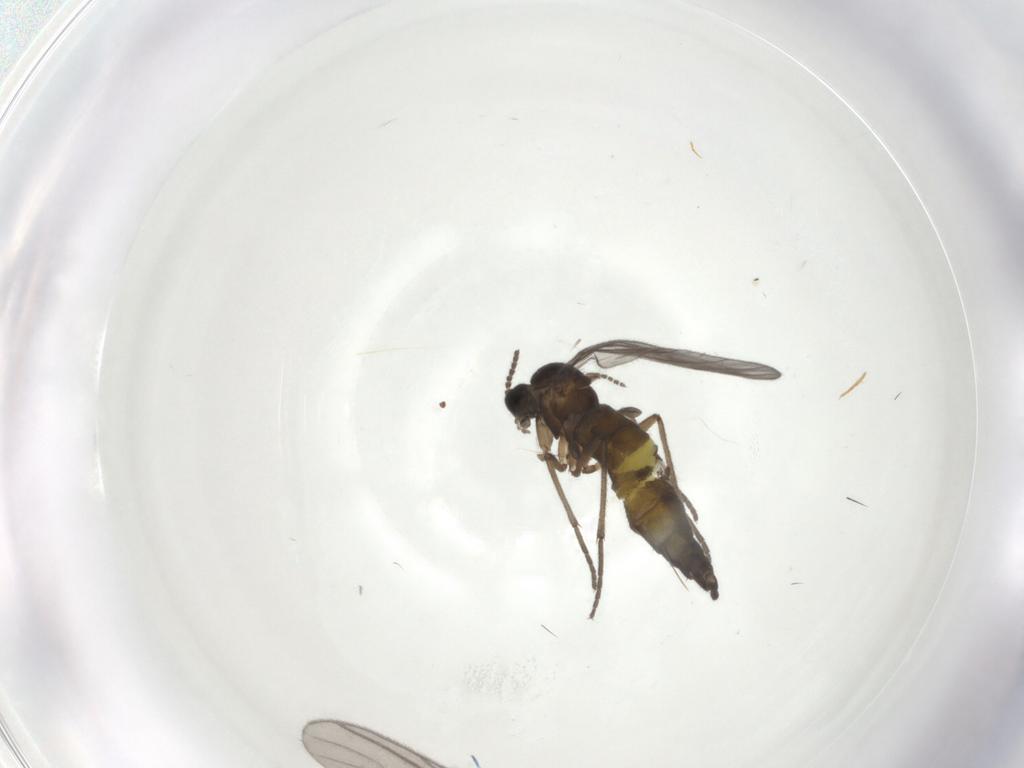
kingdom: Animalia
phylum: Arthropoda
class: Insecta
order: Diptera
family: Sciaridae
